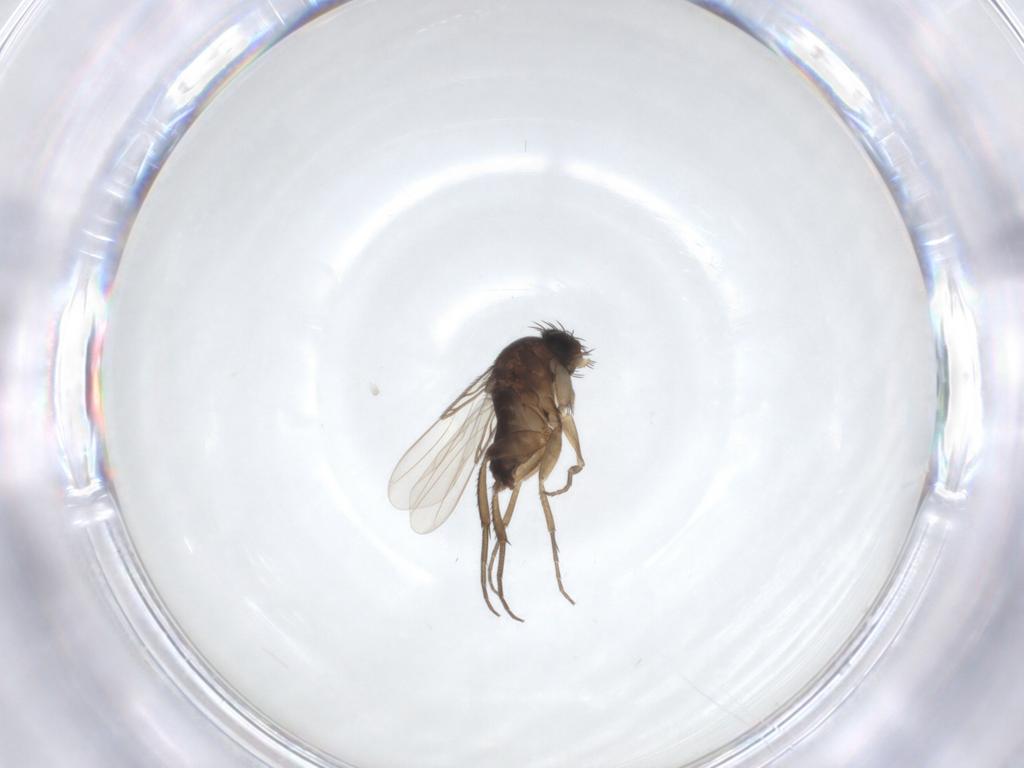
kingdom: Animalia
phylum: Arthropoda
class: Insecta
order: Diptera
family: Phoridae
